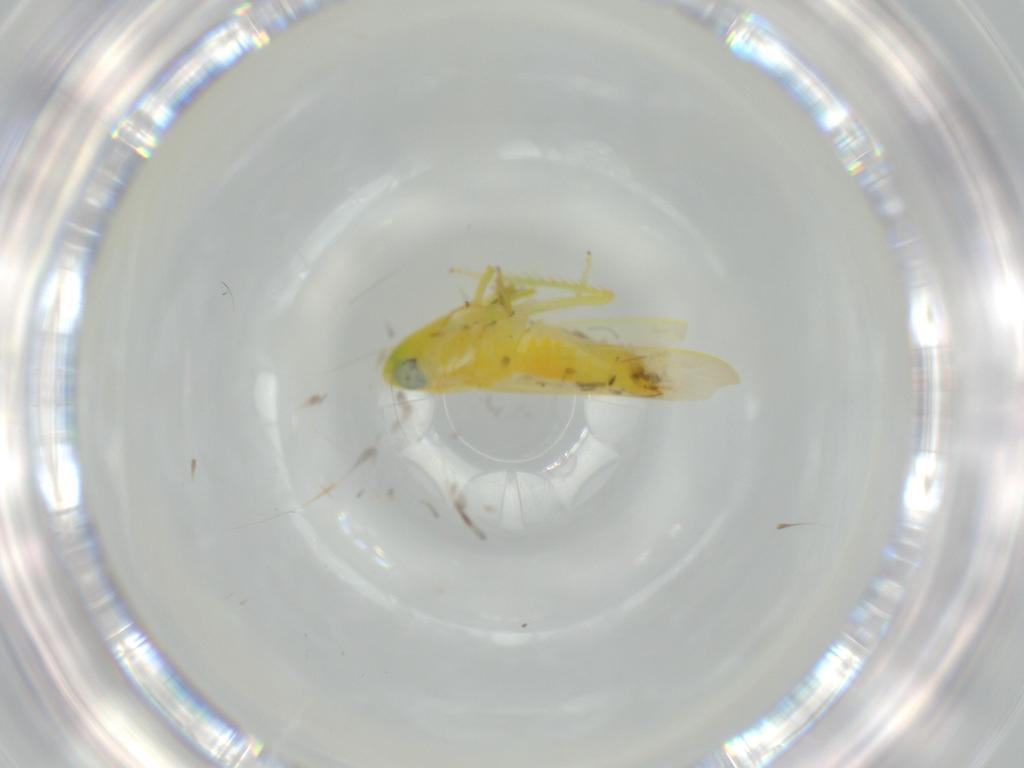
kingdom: Animalia
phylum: Arthropoda
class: Insecta
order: Hemiptera
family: Cicadellidae
